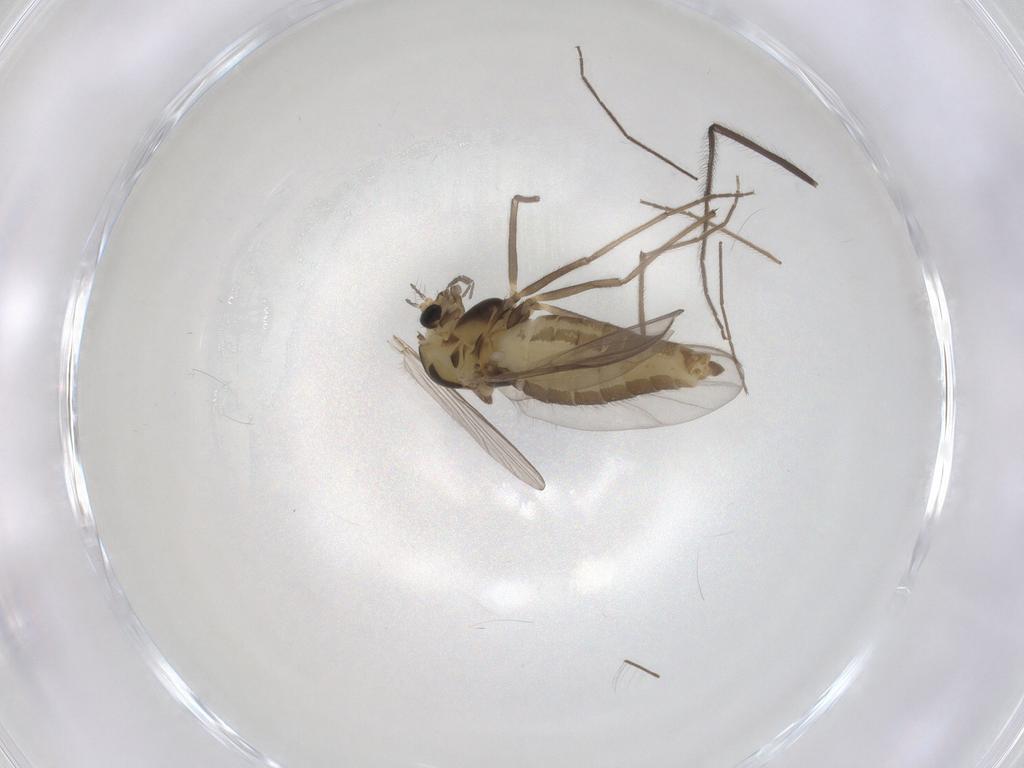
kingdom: Animalia
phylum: Arthropoda
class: Insecta
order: Diptera
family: Chironomidae
